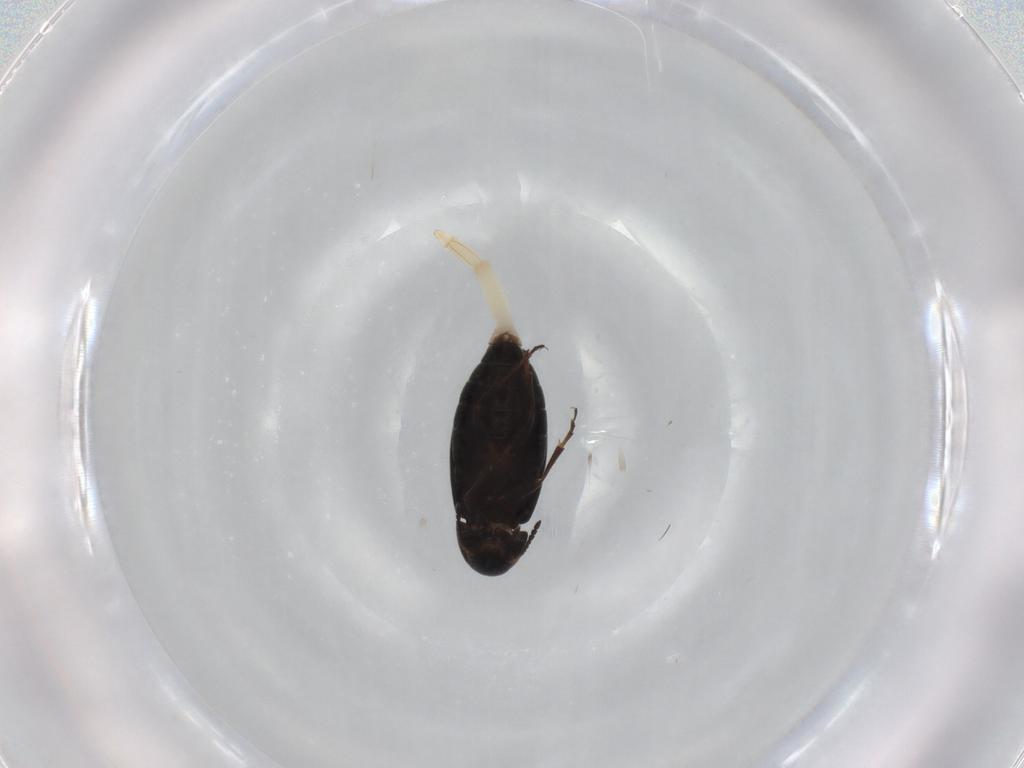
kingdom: Animalia
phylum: Arthropoda
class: Insecta
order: Coleoptera
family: Scraptiidae
